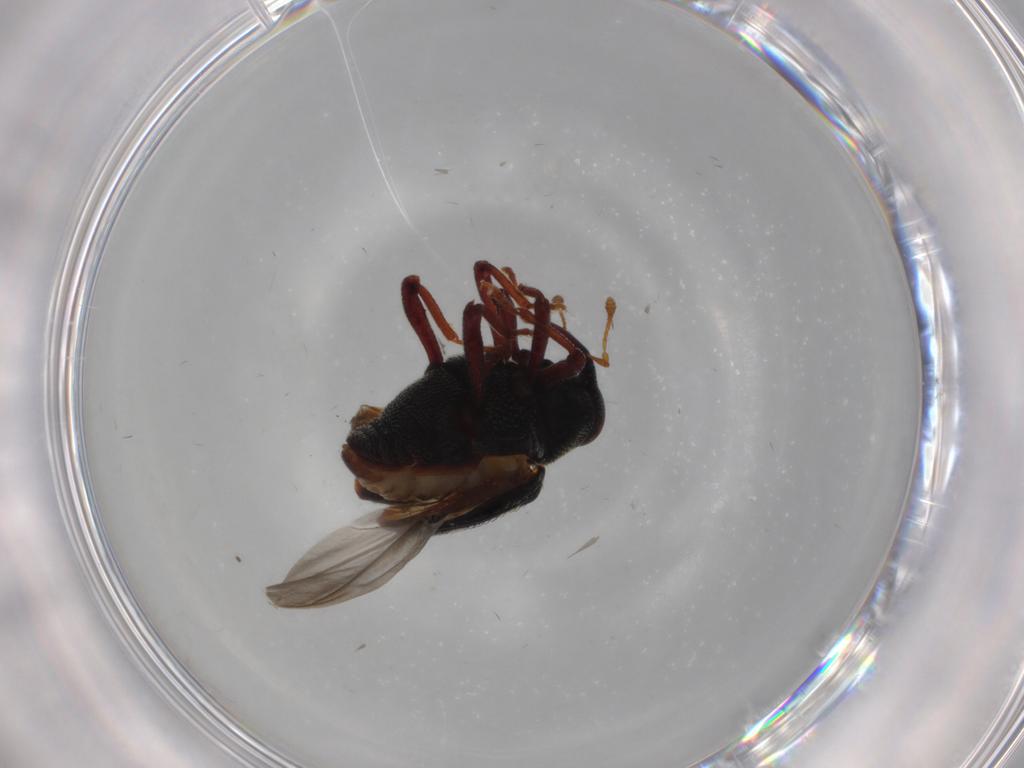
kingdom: Animalia
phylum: Arthropoda
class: Insecta
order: Coleoptera
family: Curculionidae
